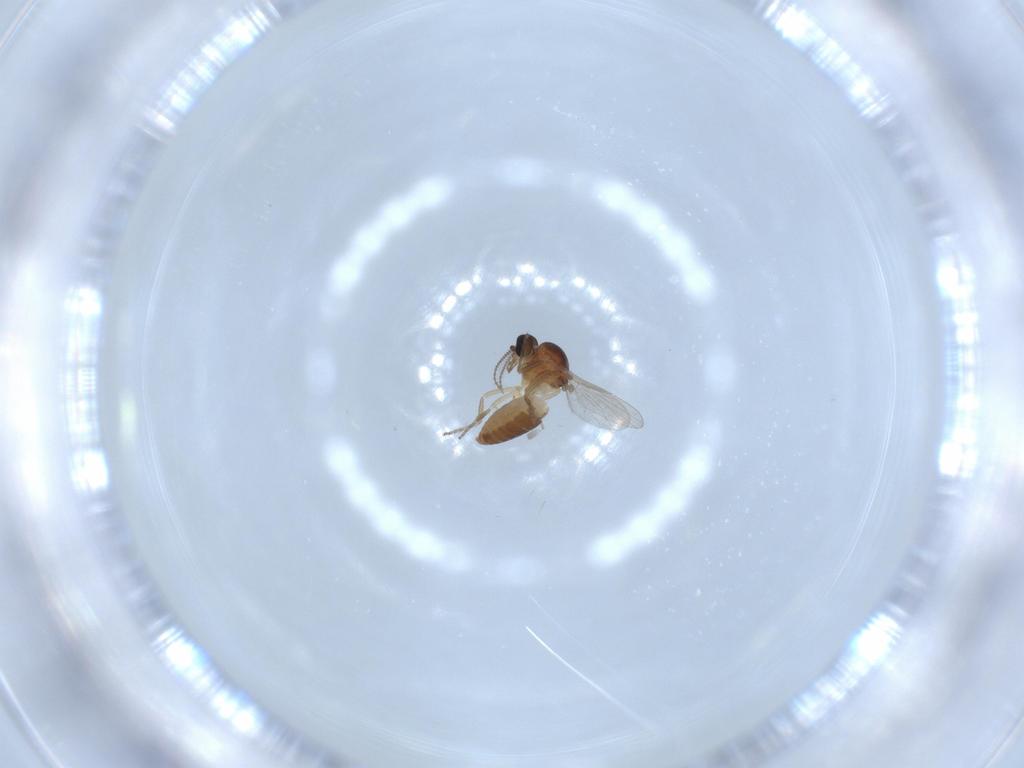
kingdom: Animalia
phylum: Arthropoda
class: Insecta
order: Diptera
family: Ceratopogonidae
